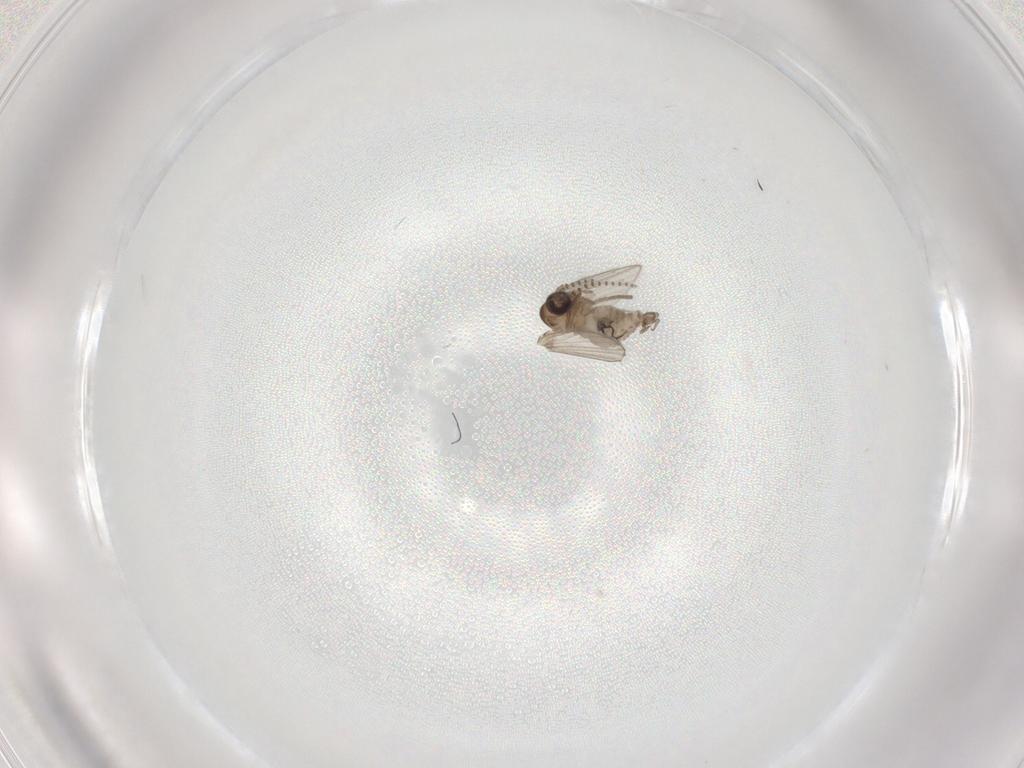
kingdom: Animalia
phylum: Arthropoda
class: Insecta
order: Diptera
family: Psychodidae
